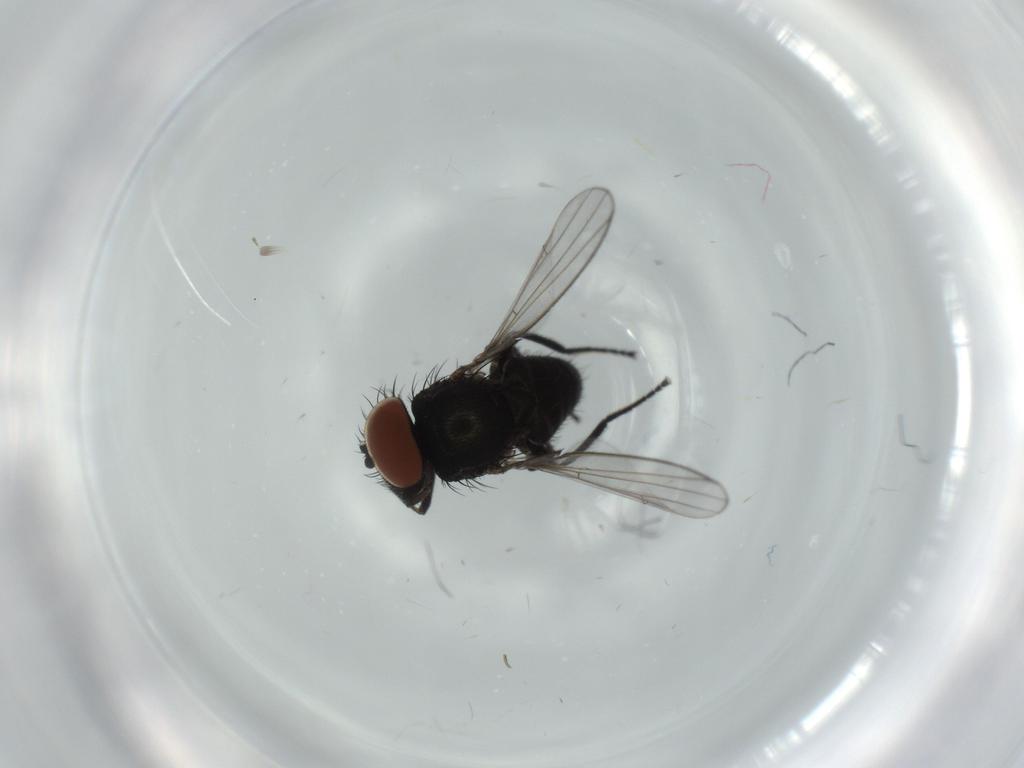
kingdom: Animalia
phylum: Arthropoda
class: Insecta
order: Diptera
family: Milichiidae
